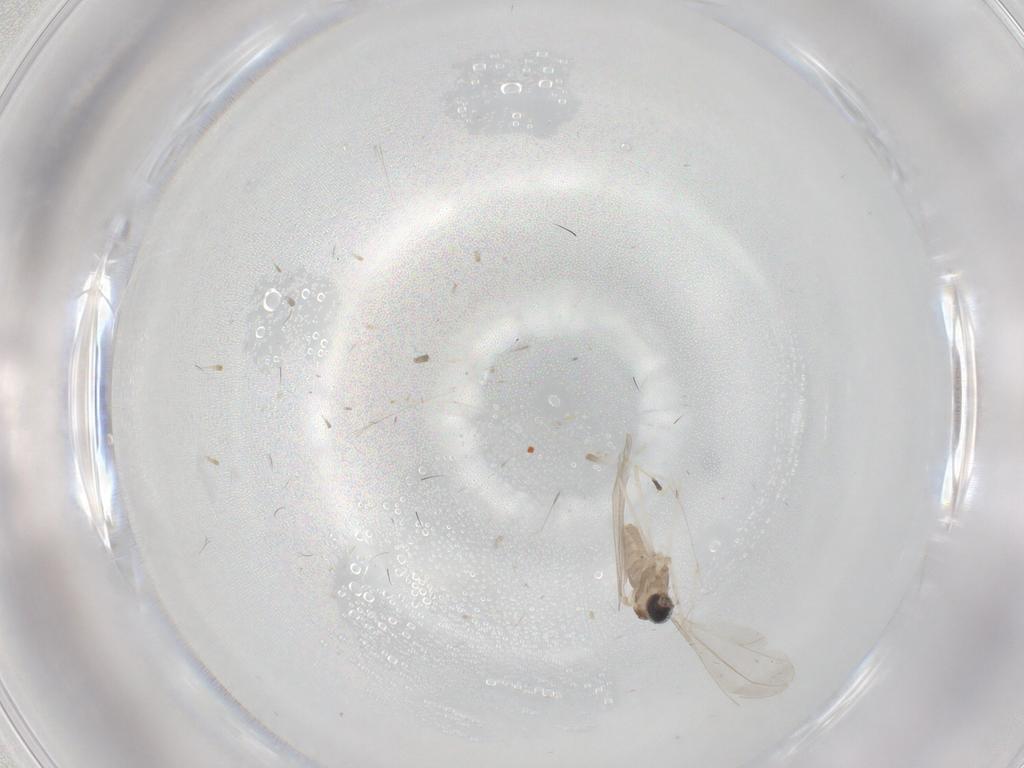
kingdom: Animalia
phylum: Arthropoda
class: Insecta
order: Diptera
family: Cecidomyiidae
